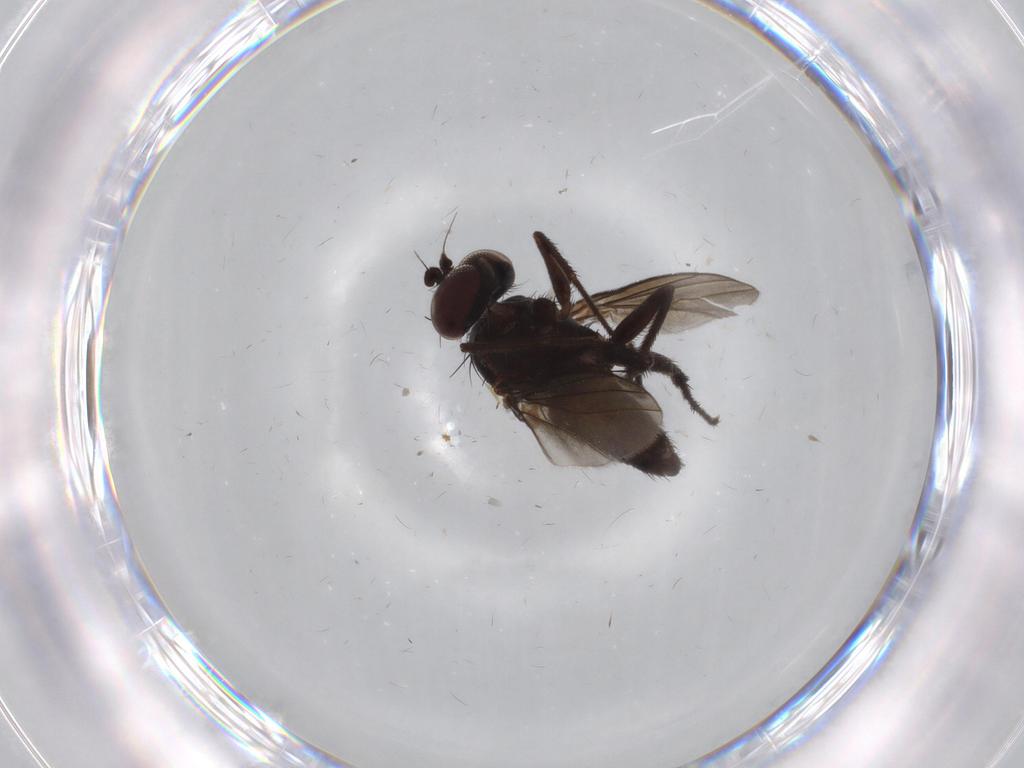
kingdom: Animalia
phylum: Arthropoda
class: Insecta
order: Diptera
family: Dolichopodidae
